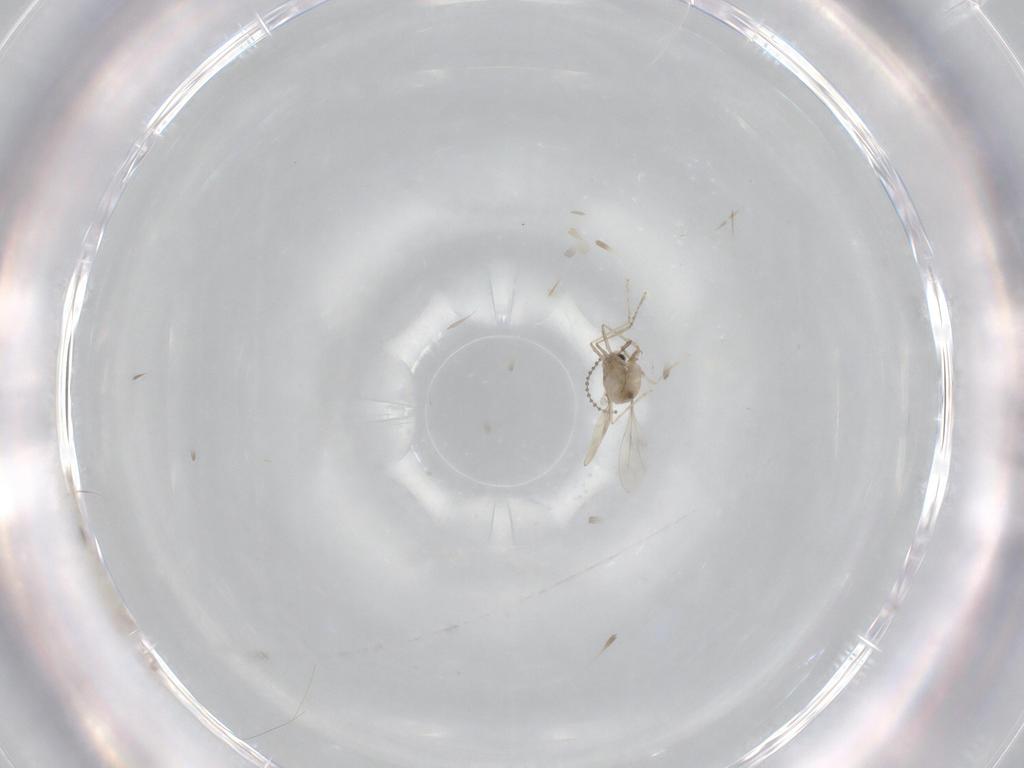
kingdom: Animalia
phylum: Arthropoda
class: Insecta
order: Diptera
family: Cecidomyiidae
